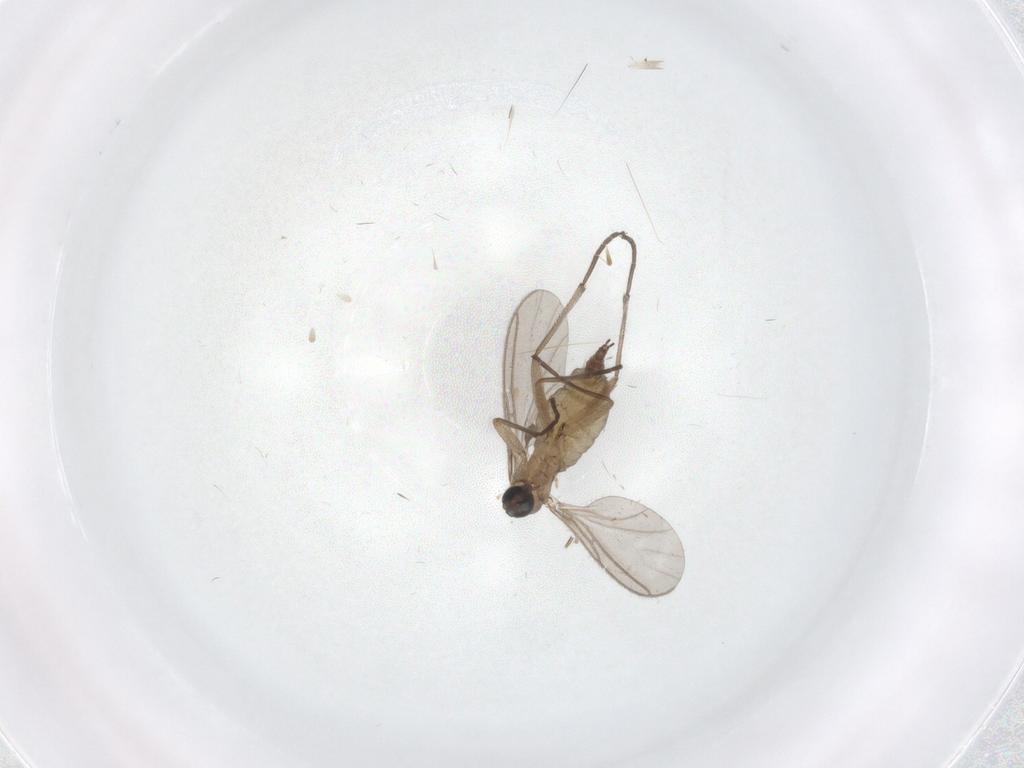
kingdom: Animalia
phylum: Arthropoda
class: Insecta
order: Diptera
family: Sciaridae
